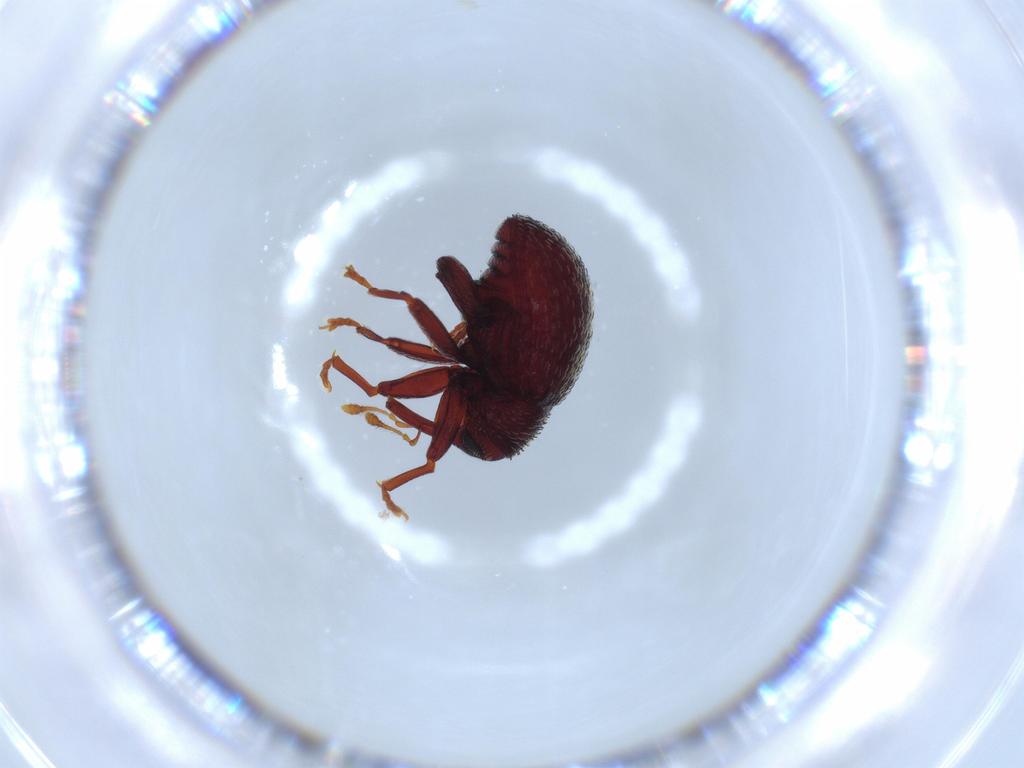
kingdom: Animalia
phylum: Arthropoda
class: Insecta
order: Coleoptera
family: Curculionidae
